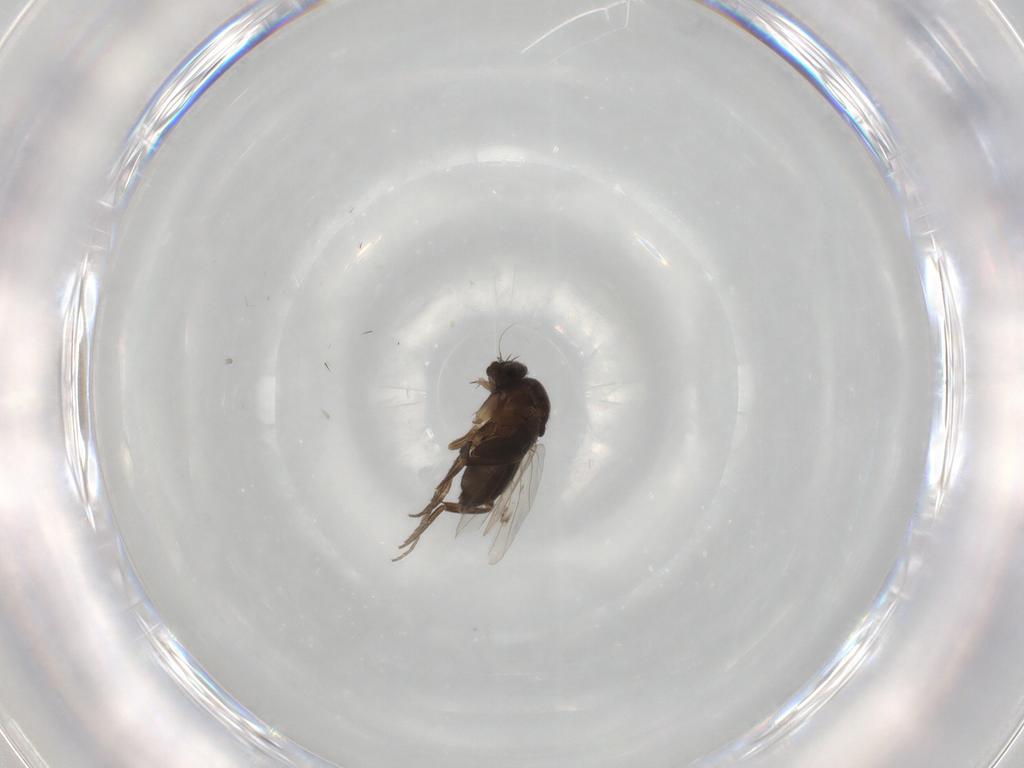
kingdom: Animalia
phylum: Arthropoda
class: Insecta
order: Diptera
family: Phoridae
